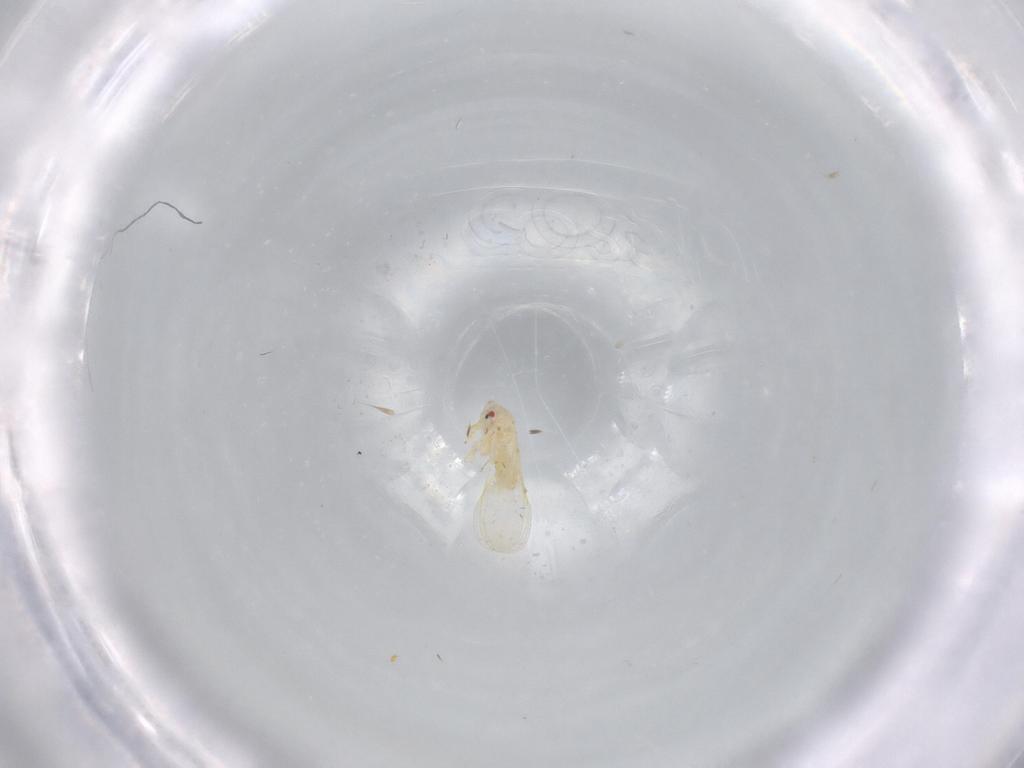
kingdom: Animalia
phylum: Arthropoda
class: Insecta
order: Hemiptera
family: Aleyrodidae
